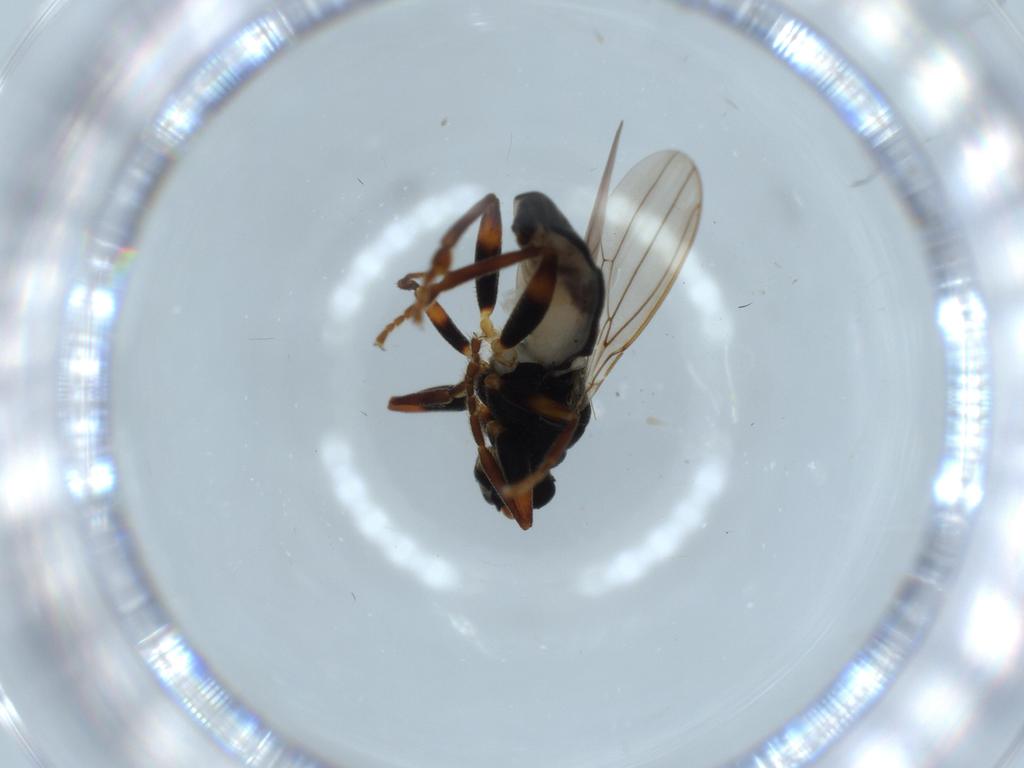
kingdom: Animalia
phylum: Arthropoda
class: Insecta
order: Diptera
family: Sphaeroceridae
